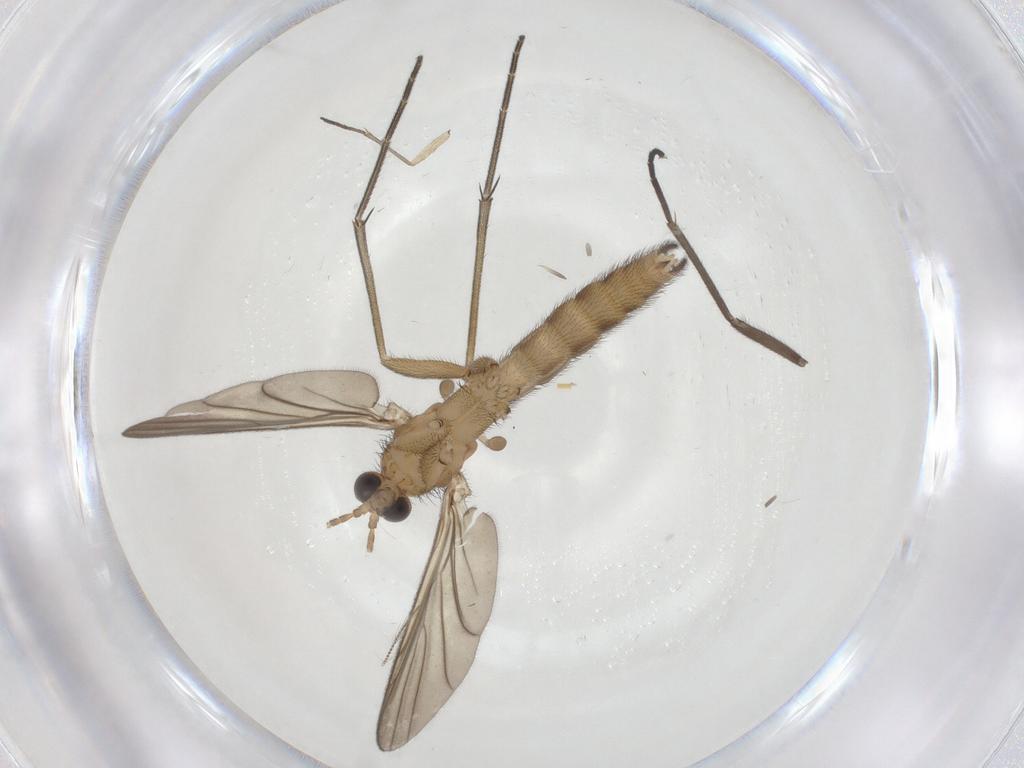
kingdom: Animalia
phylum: Arthropoda
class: Insecta
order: Diptera
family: Keroplatidae
